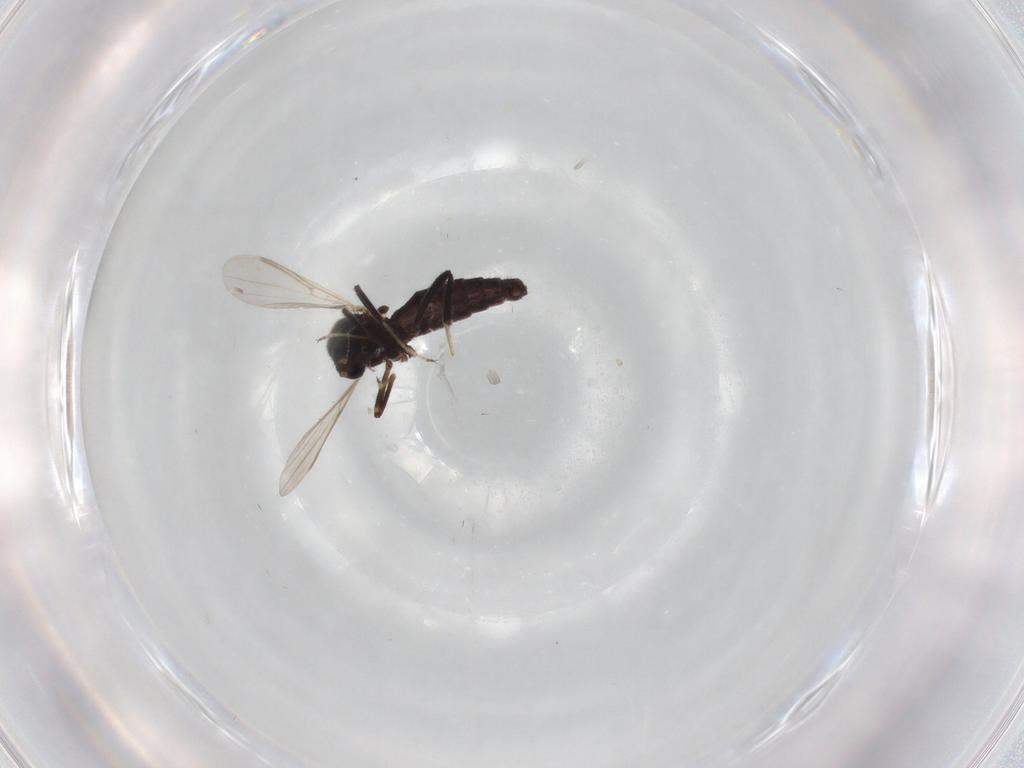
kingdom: Animalia
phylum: Arthropoda
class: Insecta
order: Diptera
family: Ceratopogonidae
